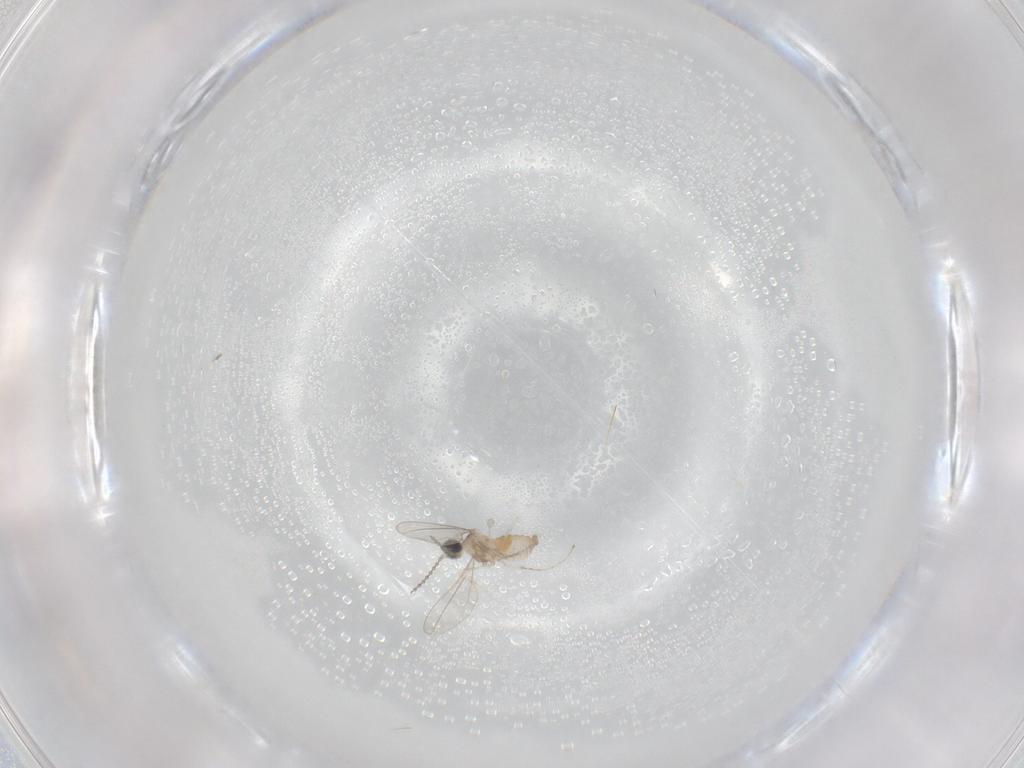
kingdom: Animalia
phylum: Arthropoda
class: Insecta
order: Diptera
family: Cecidomyiidae
